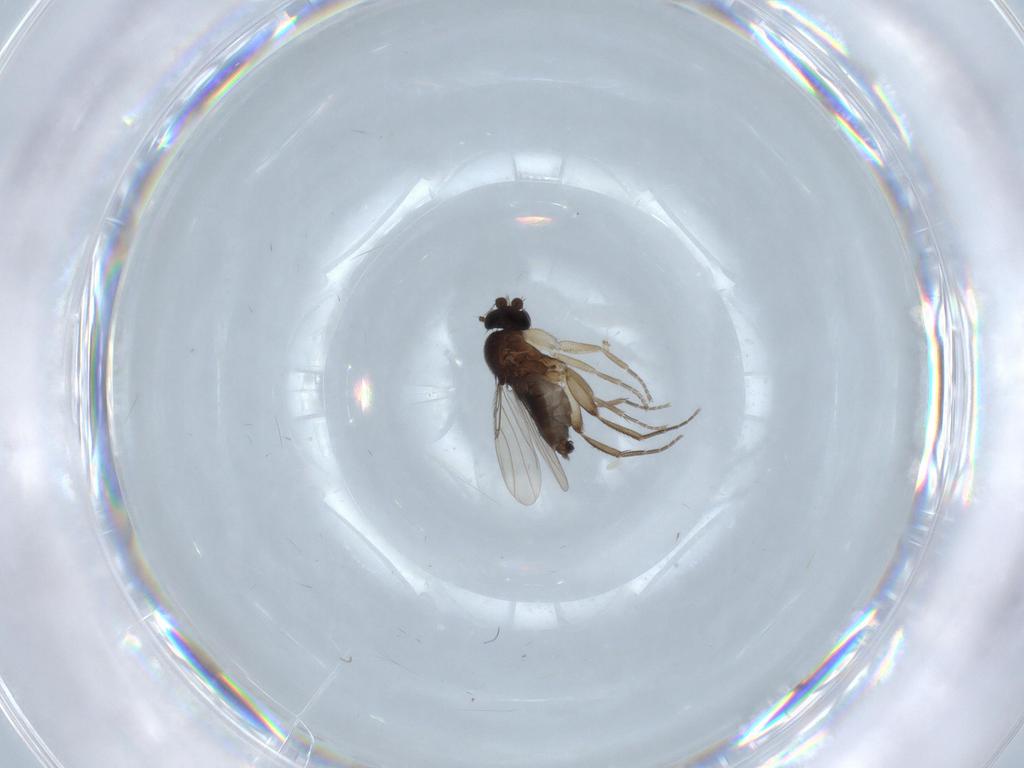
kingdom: Animalia
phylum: Arthropoda
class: Insecta
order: Diptera
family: Phoridae
